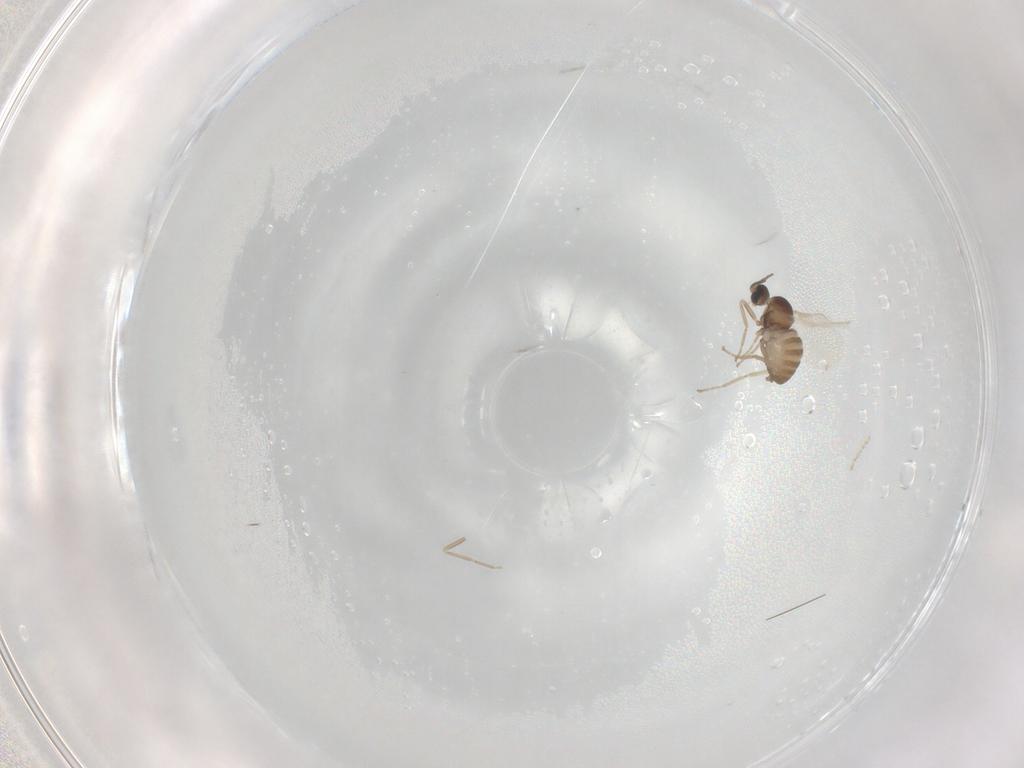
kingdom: Animalia
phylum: Arthropoda
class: Insecta
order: Diptera
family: Cecidomyiidae
